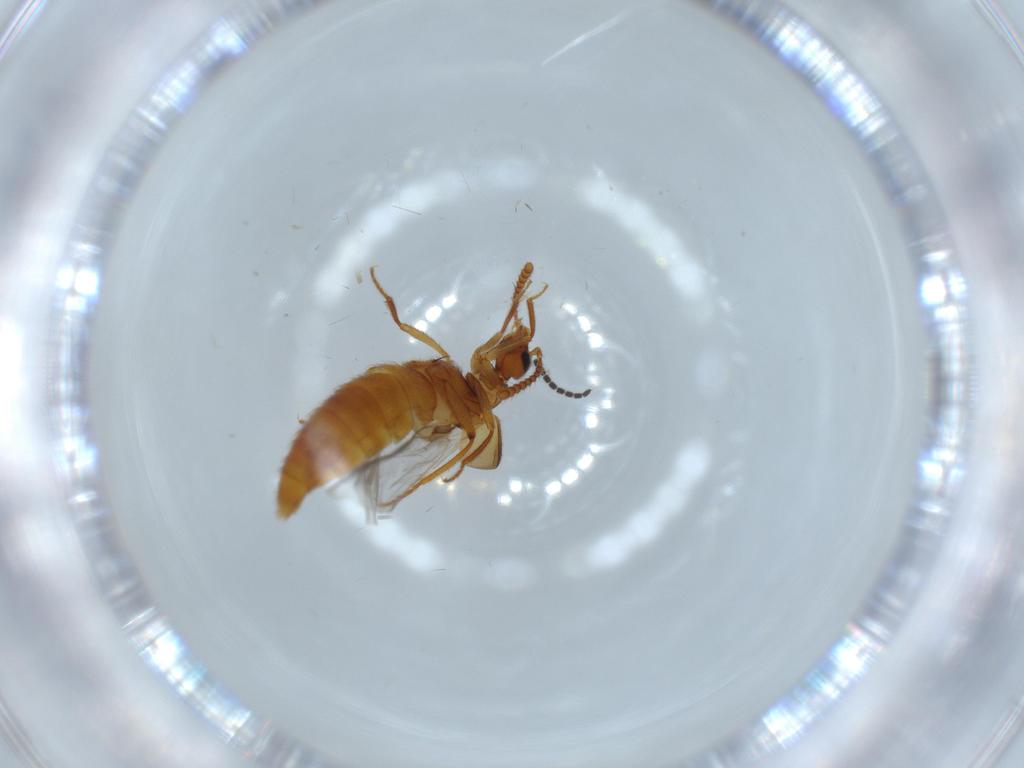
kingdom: Animalia
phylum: Arthropoda
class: Insecta
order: Coleoptera
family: Staphylinidae
